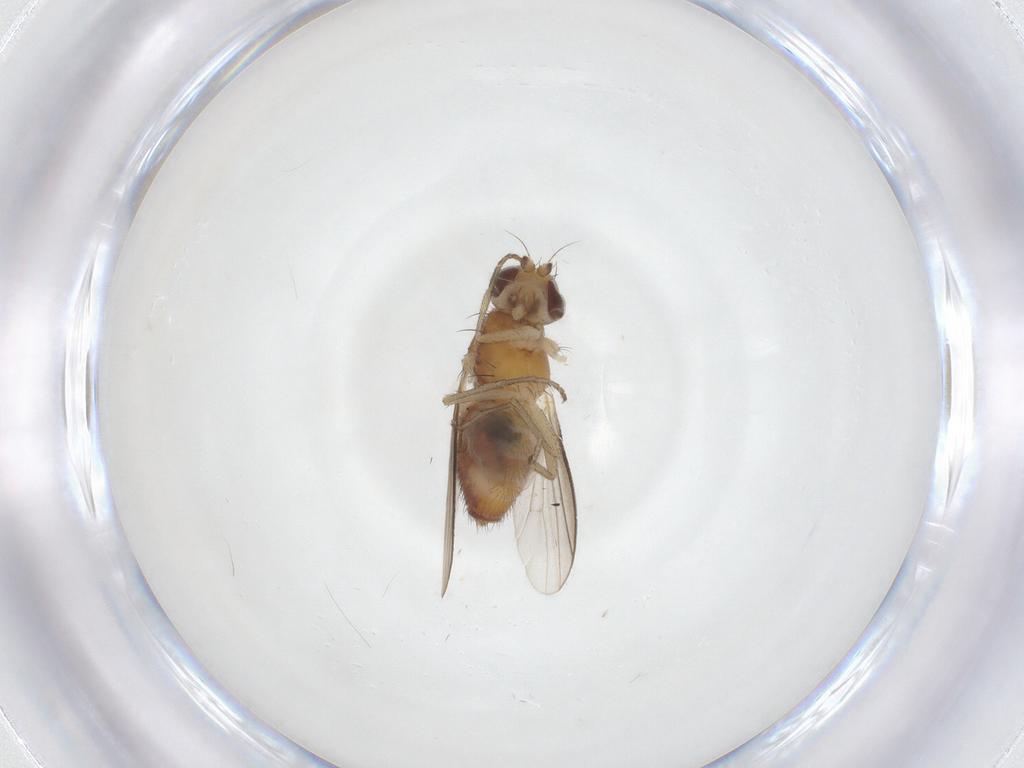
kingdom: Animalia
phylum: Arthropoda
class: Insecta
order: Diptera
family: Heleomyzidae
